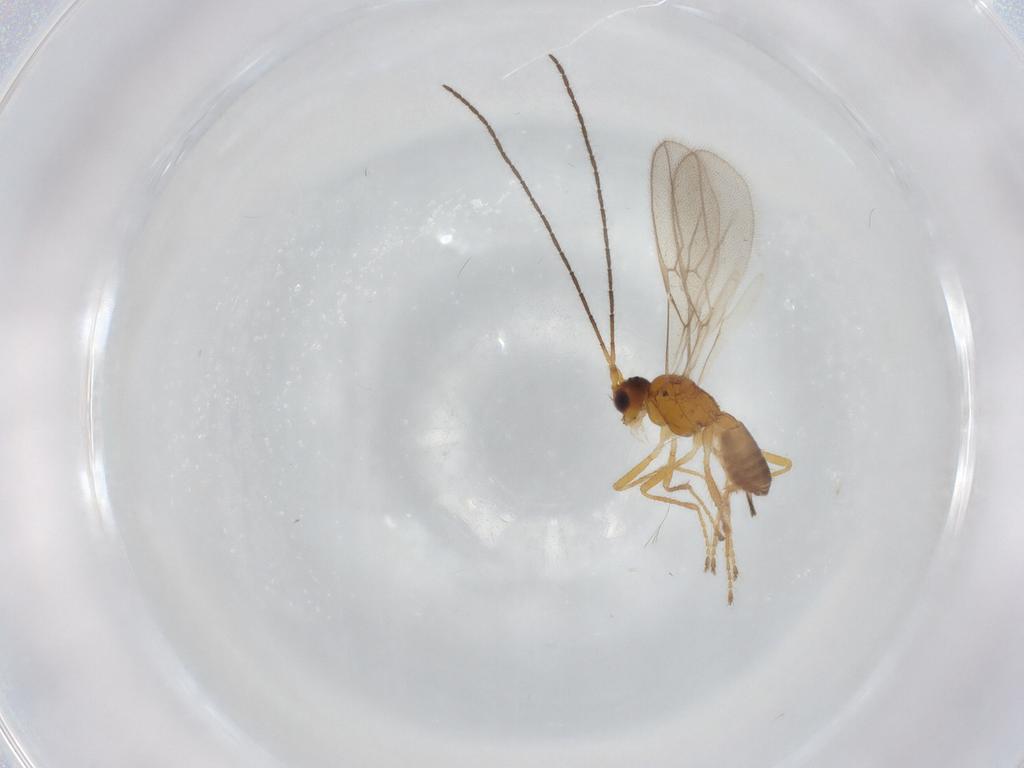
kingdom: Animalia
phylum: Arthropoda
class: Insecta
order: Hymenoptera
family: Braconidae
